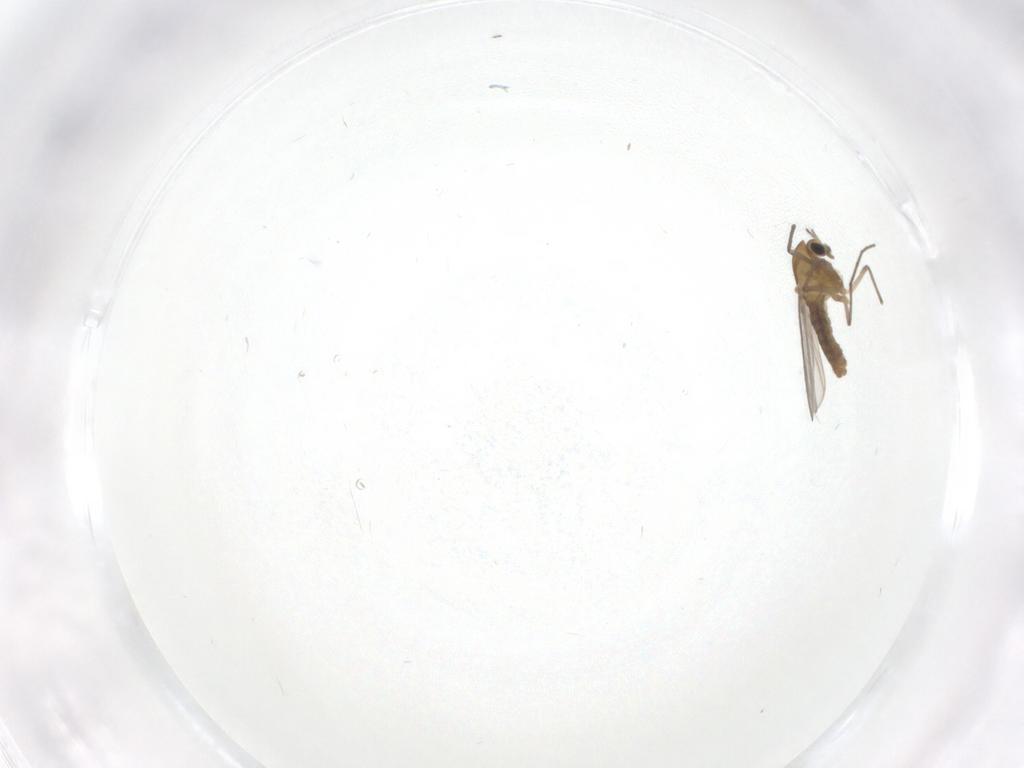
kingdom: Animalia
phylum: Arthropoda
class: Insecta
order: Diptera
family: Chironomidae
